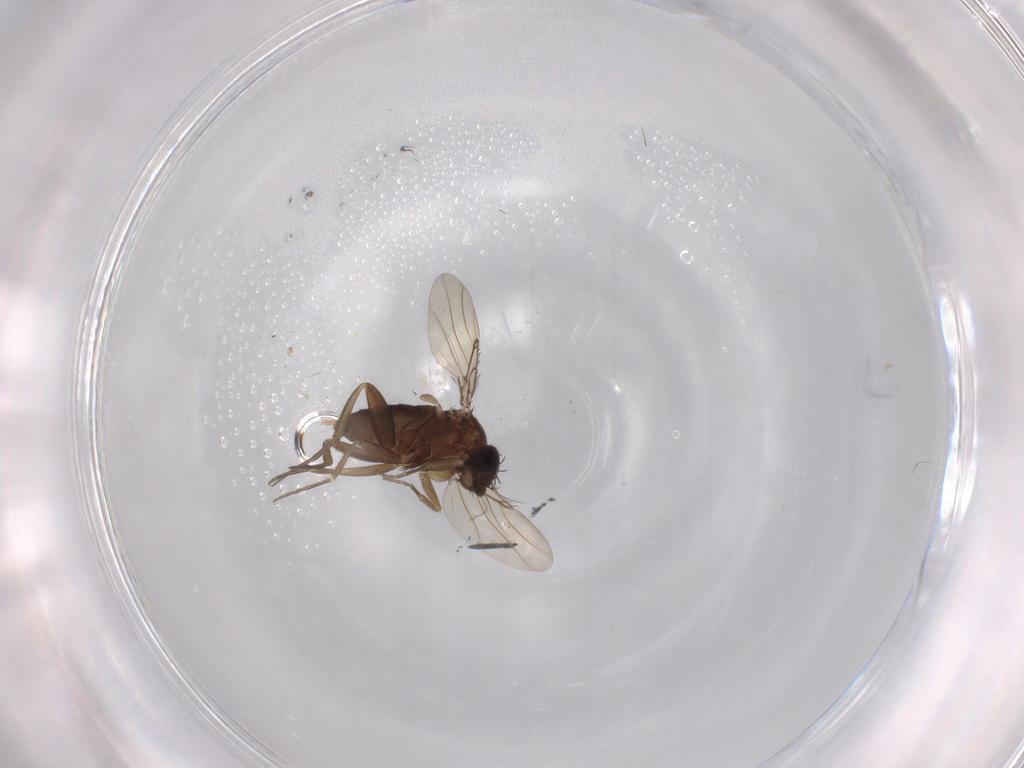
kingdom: Animalia
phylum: Arthropoda
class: Insecta
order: Diptera
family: Phoridae
